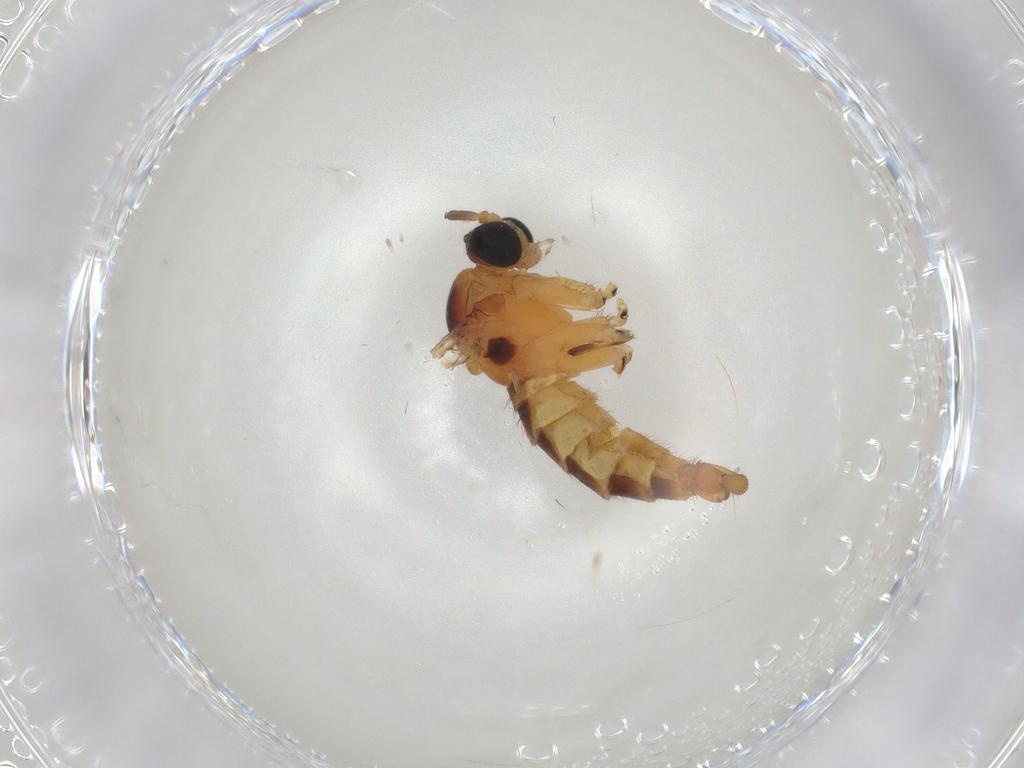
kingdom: Animalia
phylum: Arthropoda
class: Insecta
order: Diptera
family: Sciaridae
